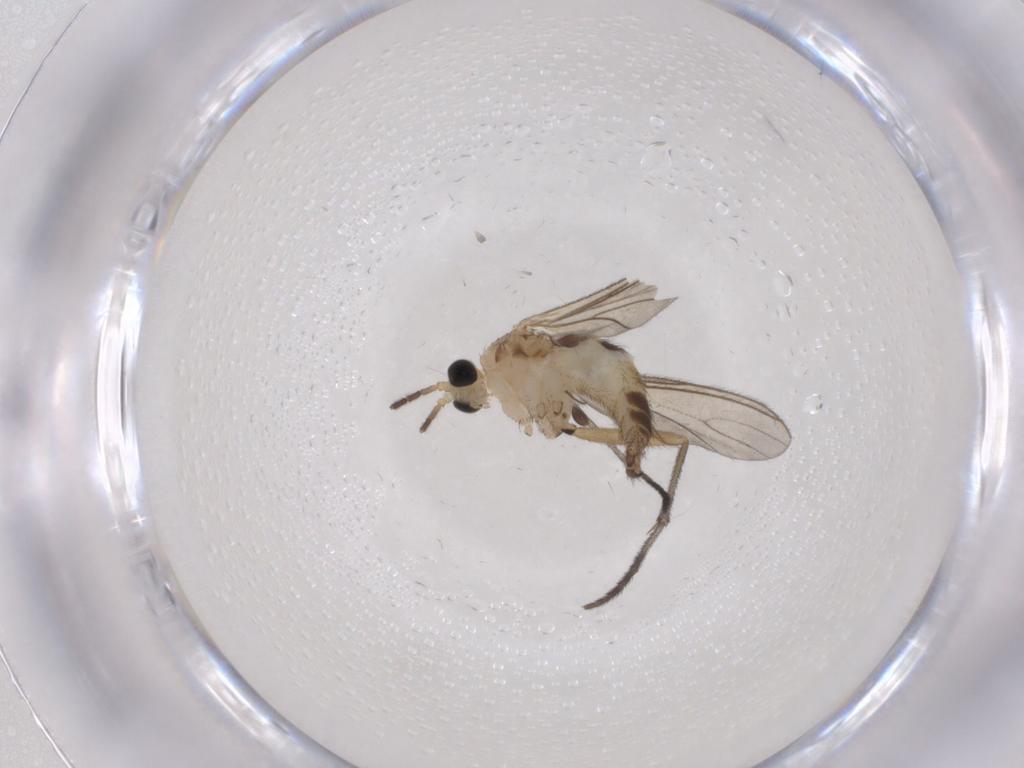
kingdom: Animalia
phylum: Arthropoda
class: Insecta
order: Diptera
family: Sciaridae
